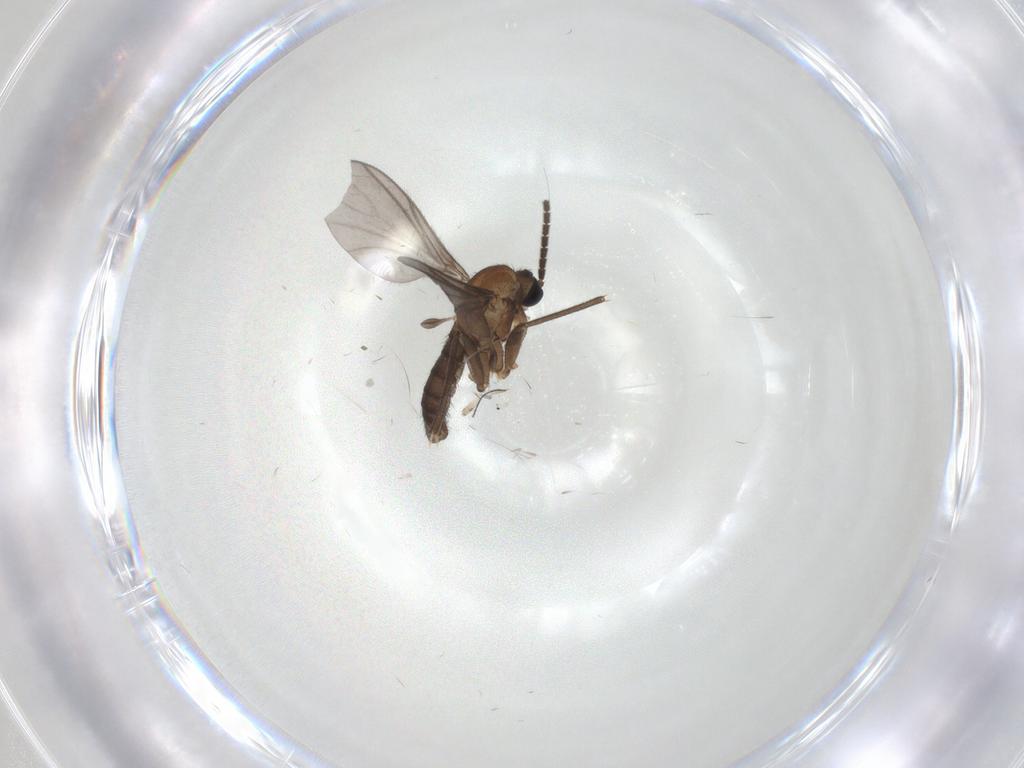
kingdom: Animalia
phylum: Arthropoda
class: Insecta
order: Diptera
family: Sciaridae
